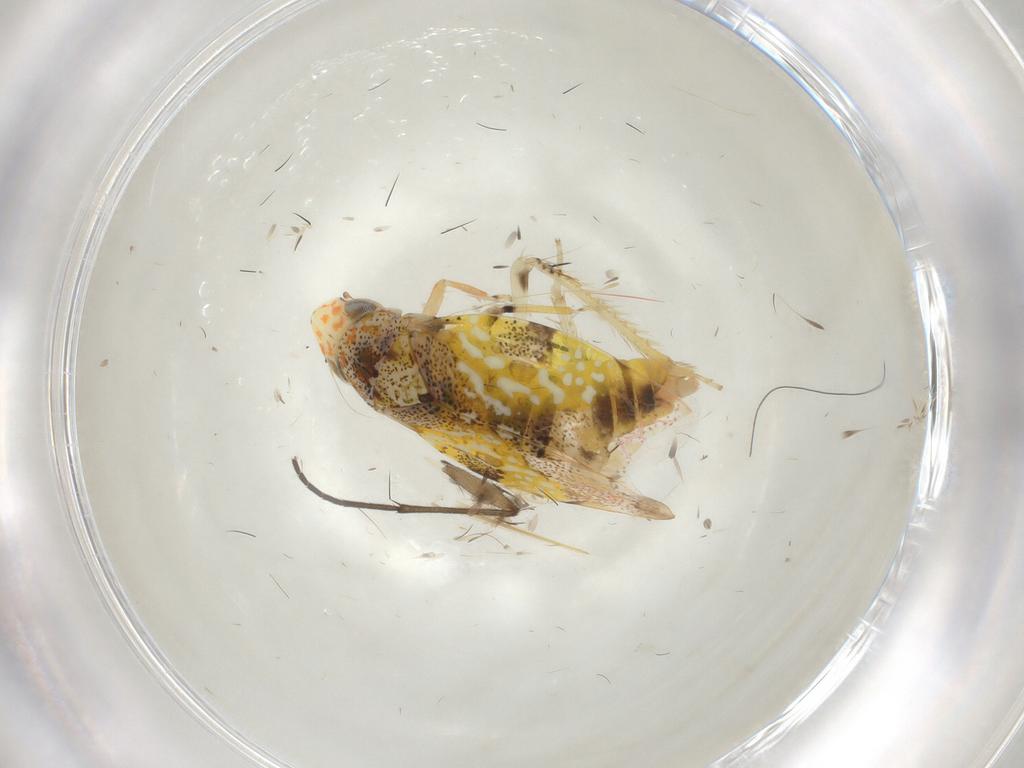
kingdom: Animalia
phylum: Arthropoda
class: Insecta
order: Hemiptera
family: Cicadellidae
